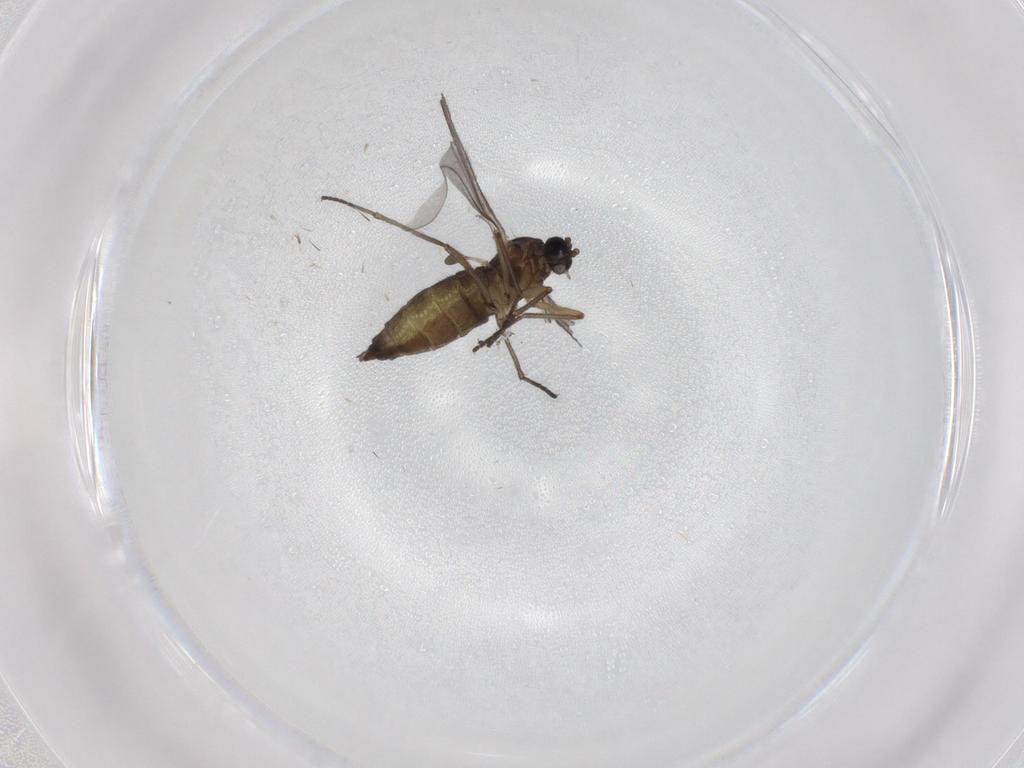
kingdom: Animalia
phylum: Arthropoda
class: Insecta
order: Diptera
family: Sciaridae
